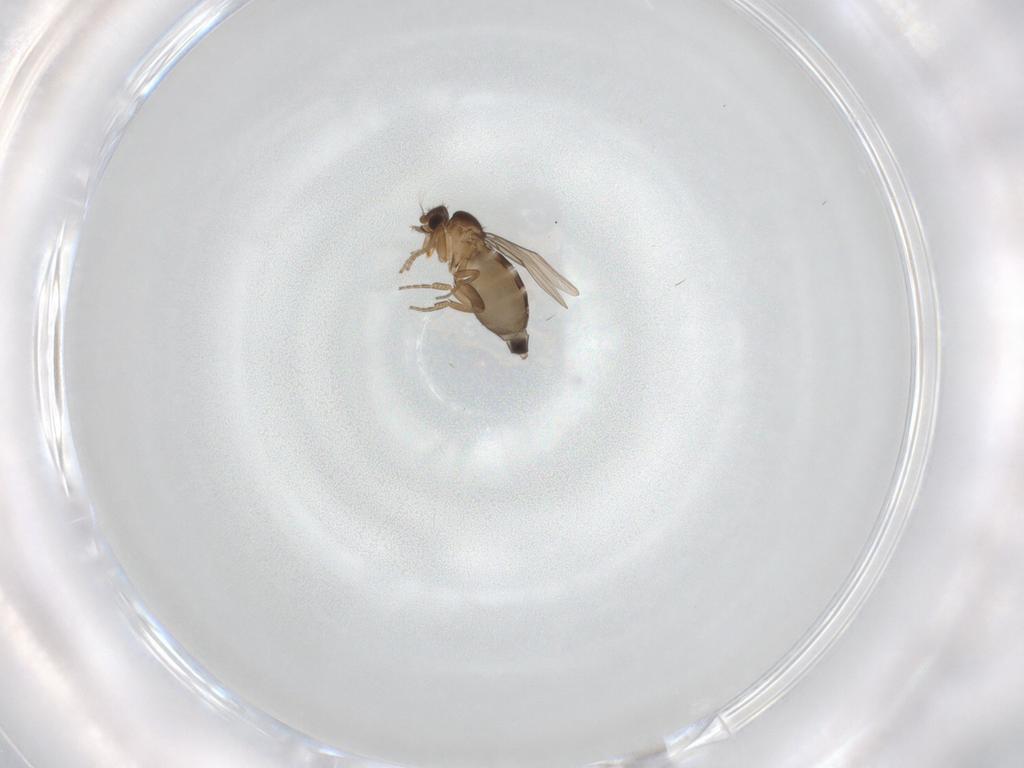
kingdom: Animalia
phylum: Arthropoda
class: Insecta
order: Diptera
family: Phoridae
